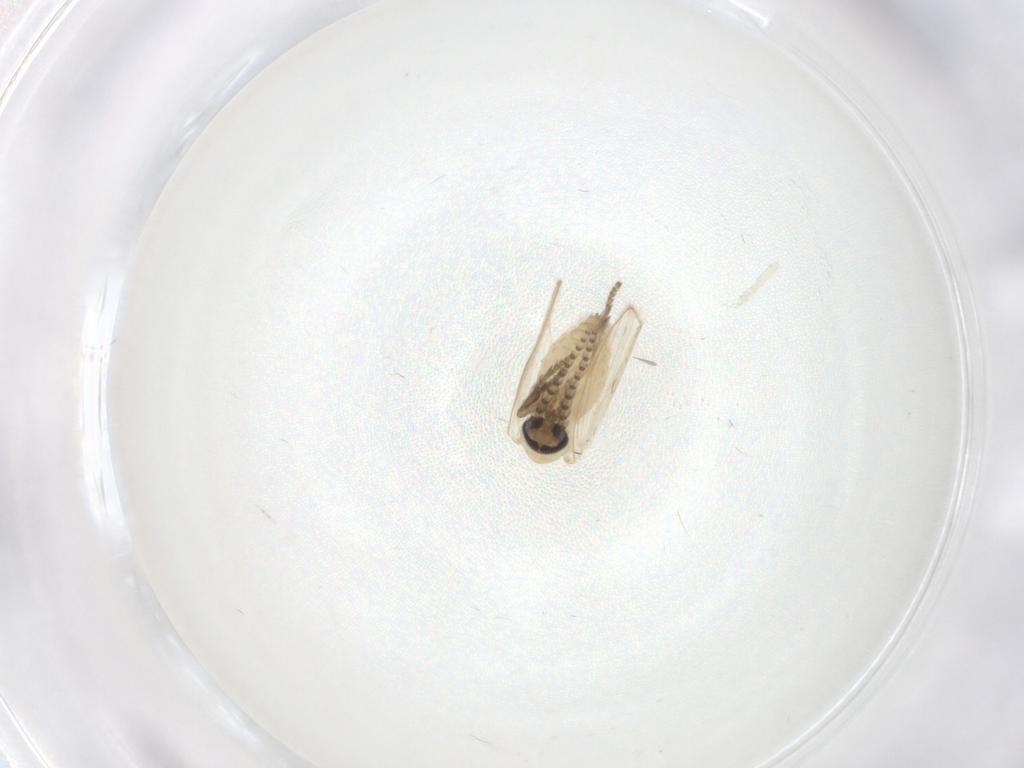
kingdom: Animalia
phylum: Arthropoda
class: Insecta
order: Diptera
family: Psychodidae
